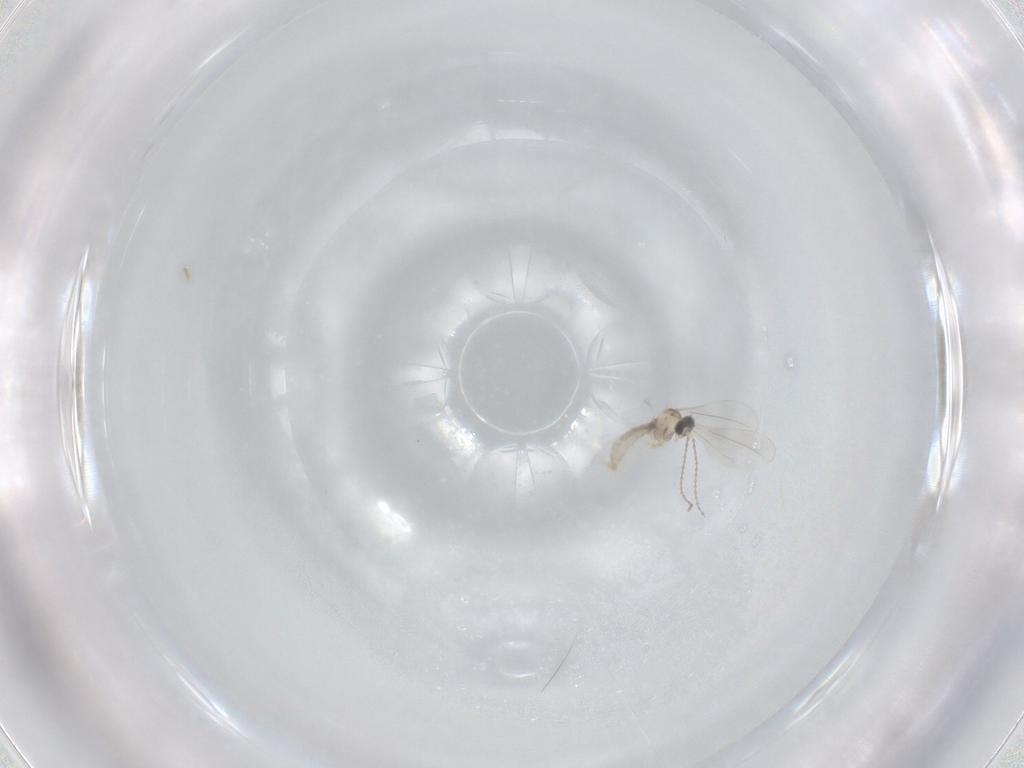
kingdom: Animalia
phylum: Arthropoda
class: Insecta
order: Diptera
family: Cecidomyiidae
